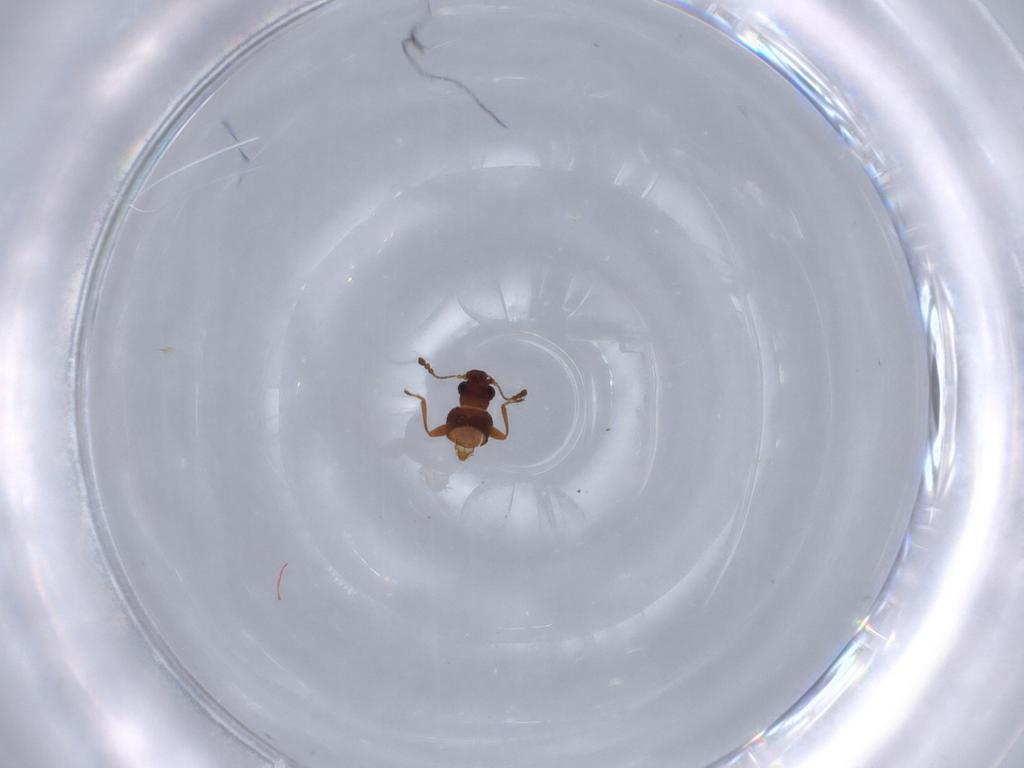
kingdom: Animalia
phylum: Arthropoda
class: Insecta
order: Coleoptera
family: Latridiidae
